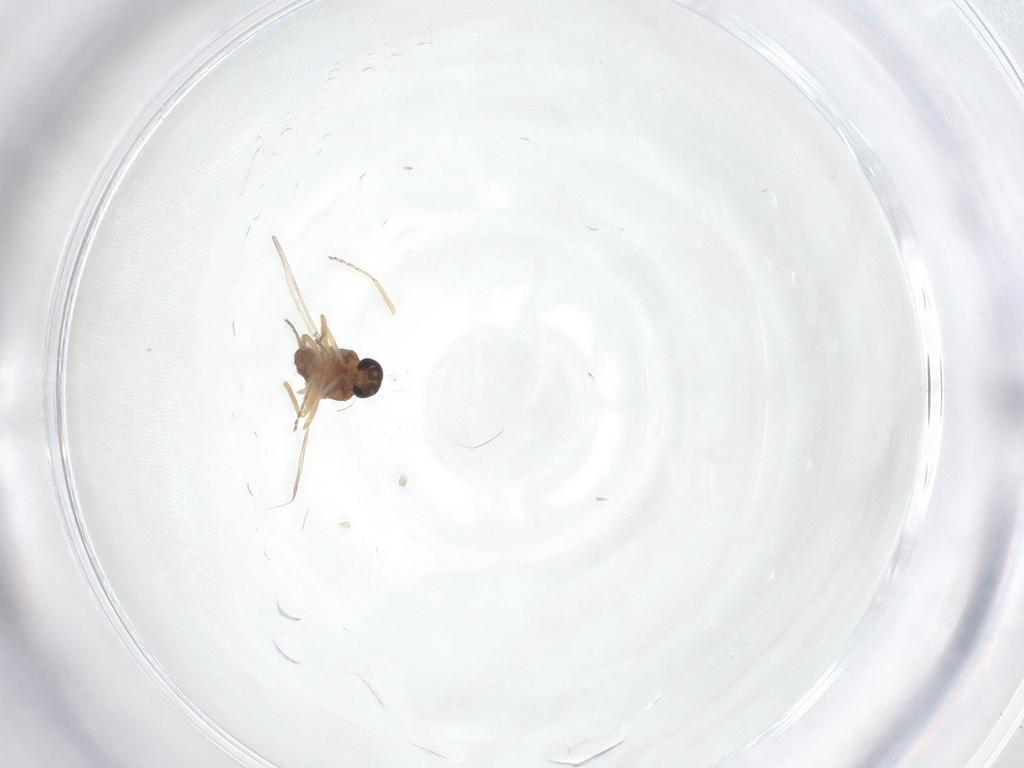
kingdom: Animalia
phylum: Arthropoda
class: Insecta
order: Diptera
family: Ceratopogonidae
